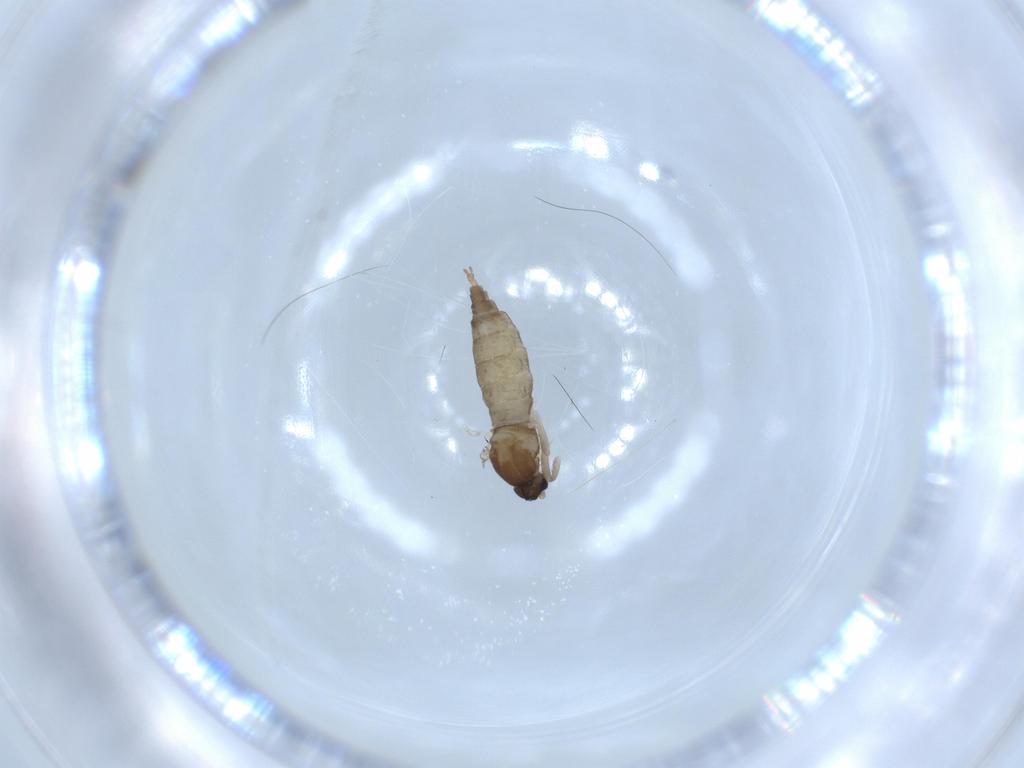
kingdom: Animalia
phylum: Arthropoda
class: Insecta
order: Diptera
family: Cecidomyiidae
